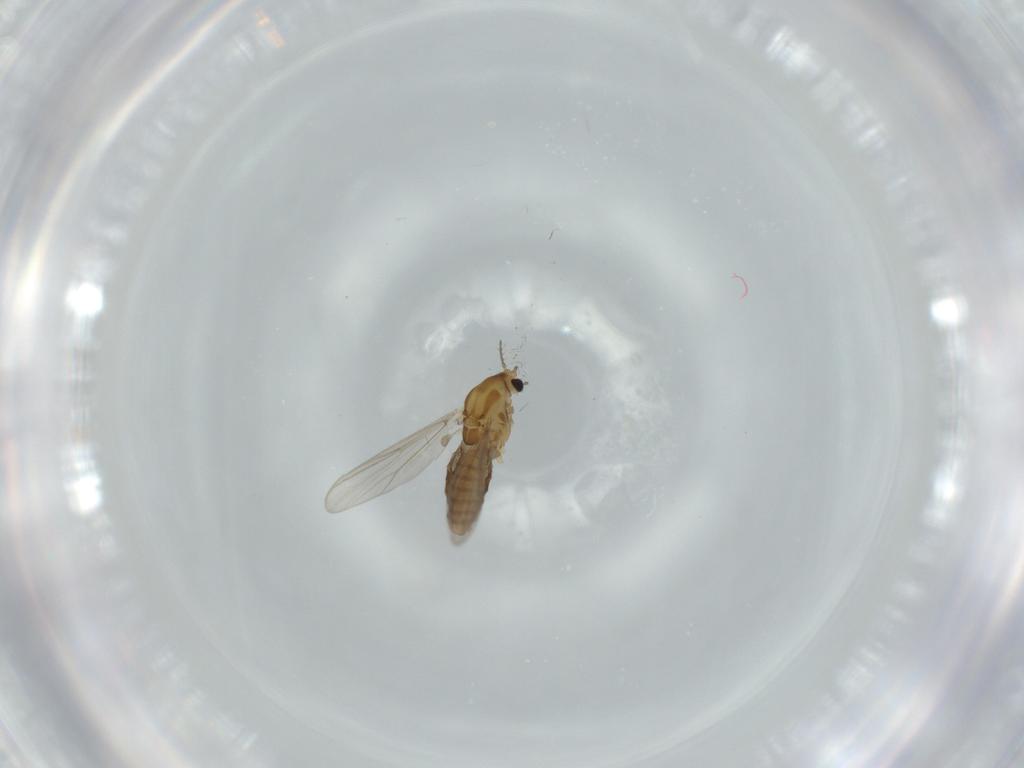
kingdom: Animalia
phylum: Arthropoda
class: Insecta
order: Diptera
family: Chironomidae
